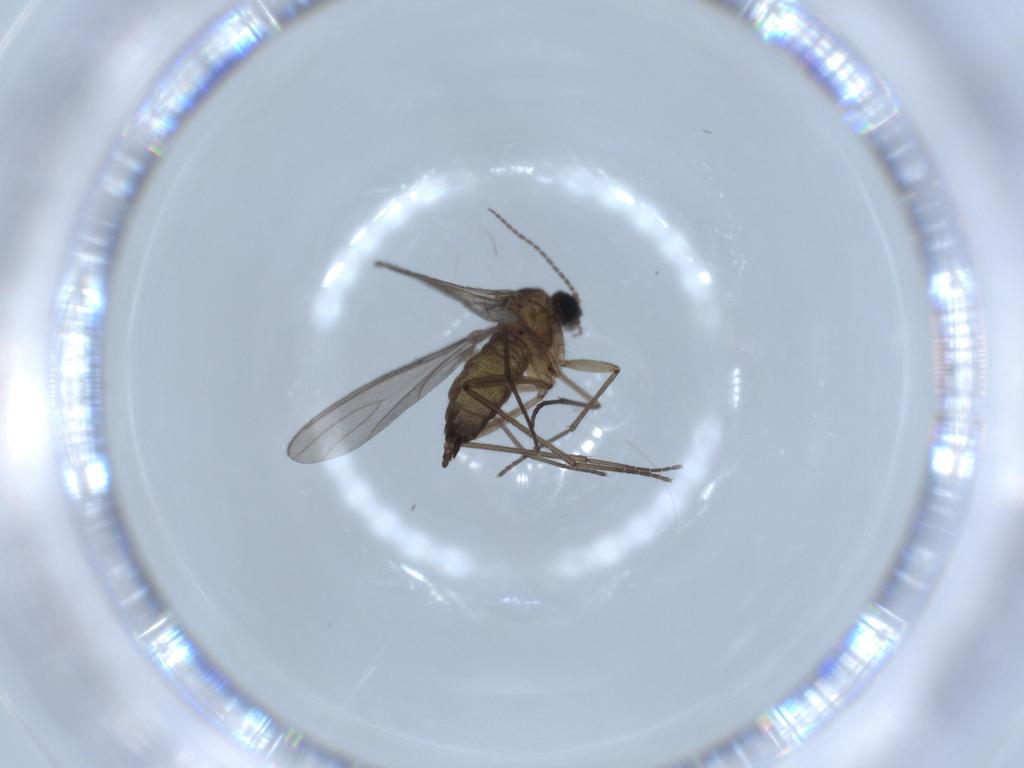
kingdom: Animalia
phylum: Arthropoda
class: Insecta
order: Diptera
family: Sciaridae
